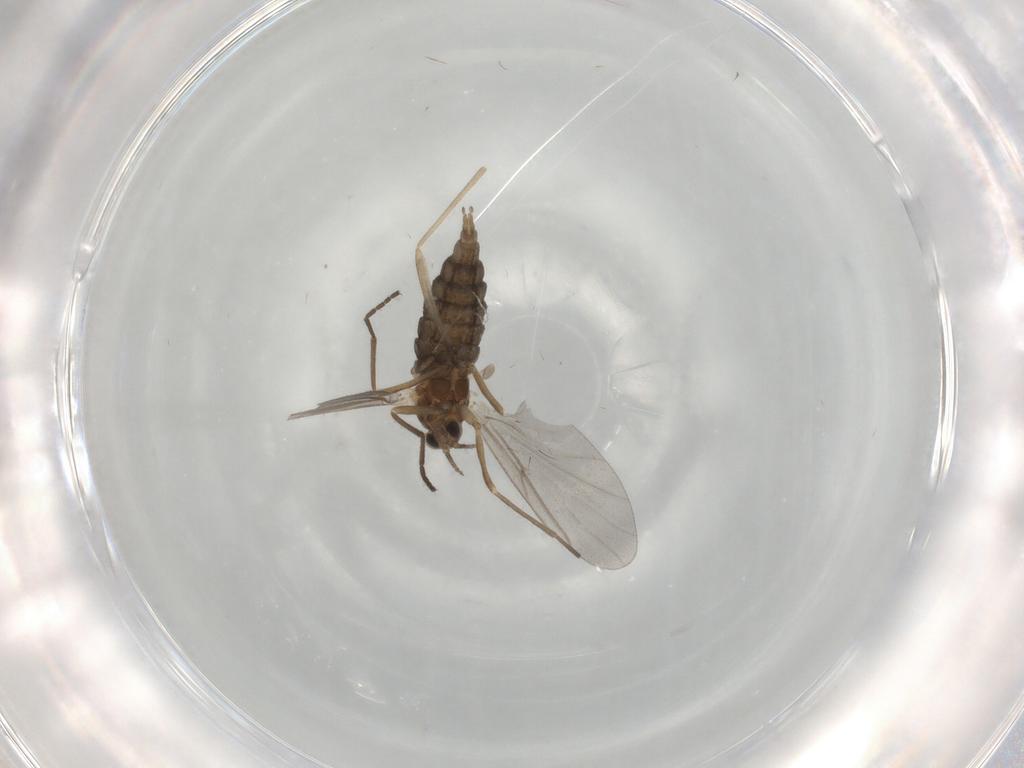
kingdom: Animalia
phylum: Arthropoda
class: Insecta
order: Diptera
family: Cecidomyiidae
